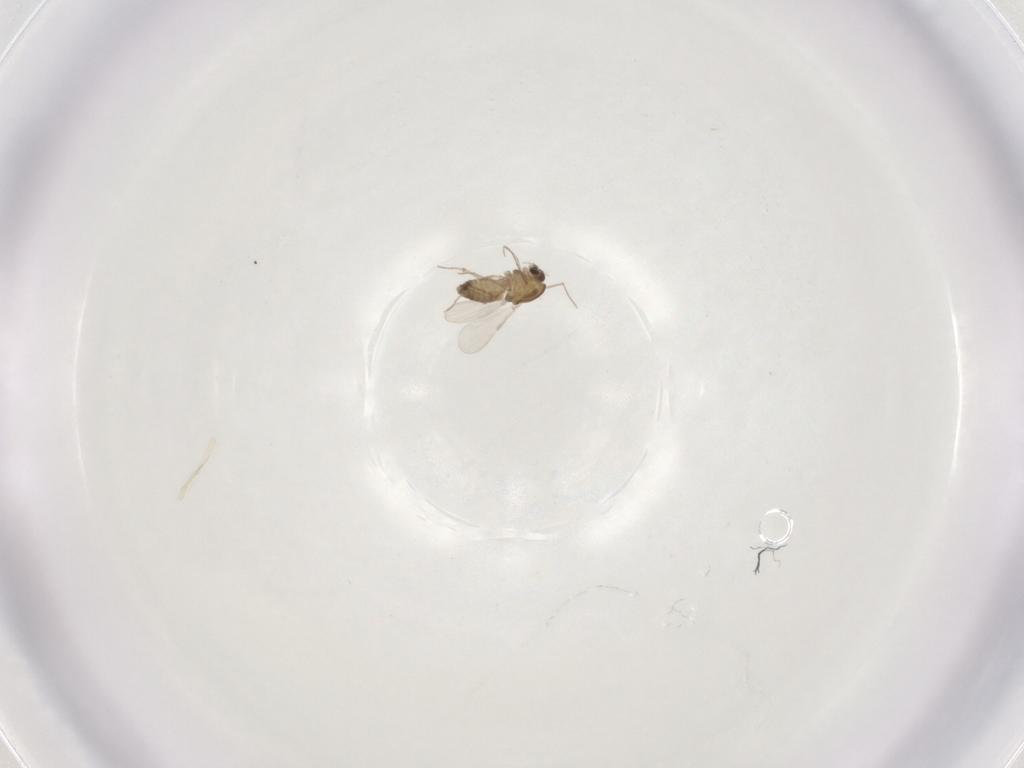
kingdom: Animalia
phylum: Arthropoda
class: Insecta
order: Diptera
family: Chironomidae
